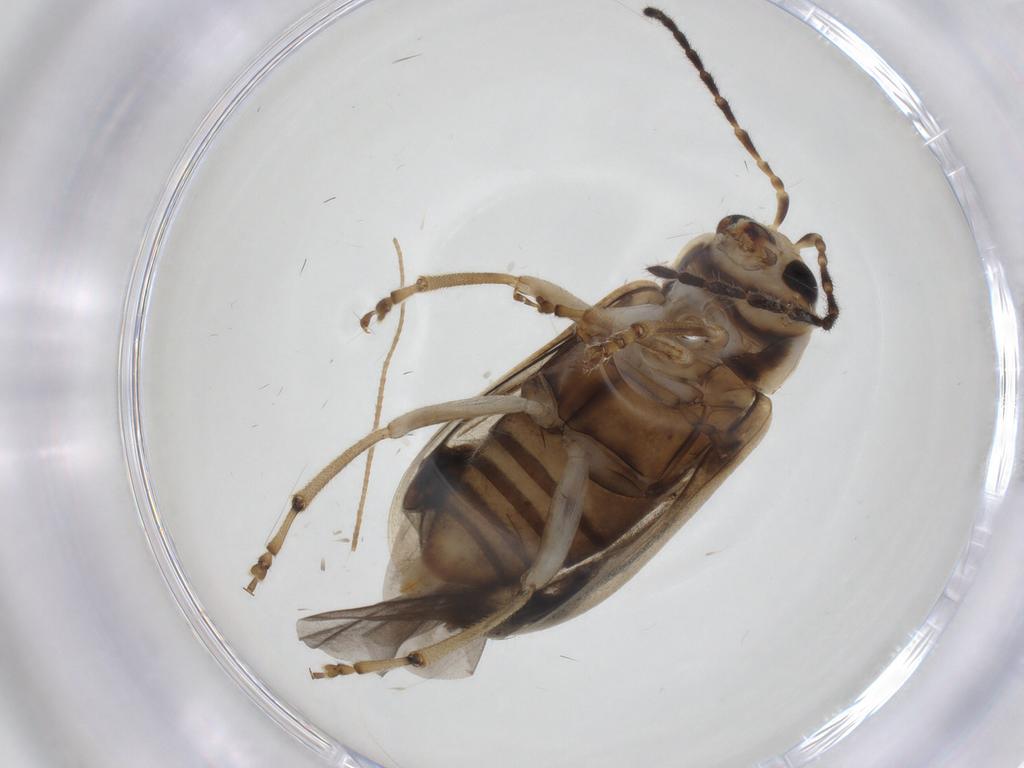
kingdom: Animalia
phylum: Arthropoda
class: Insecta
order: Coleoptera
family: Chrysomelidae
